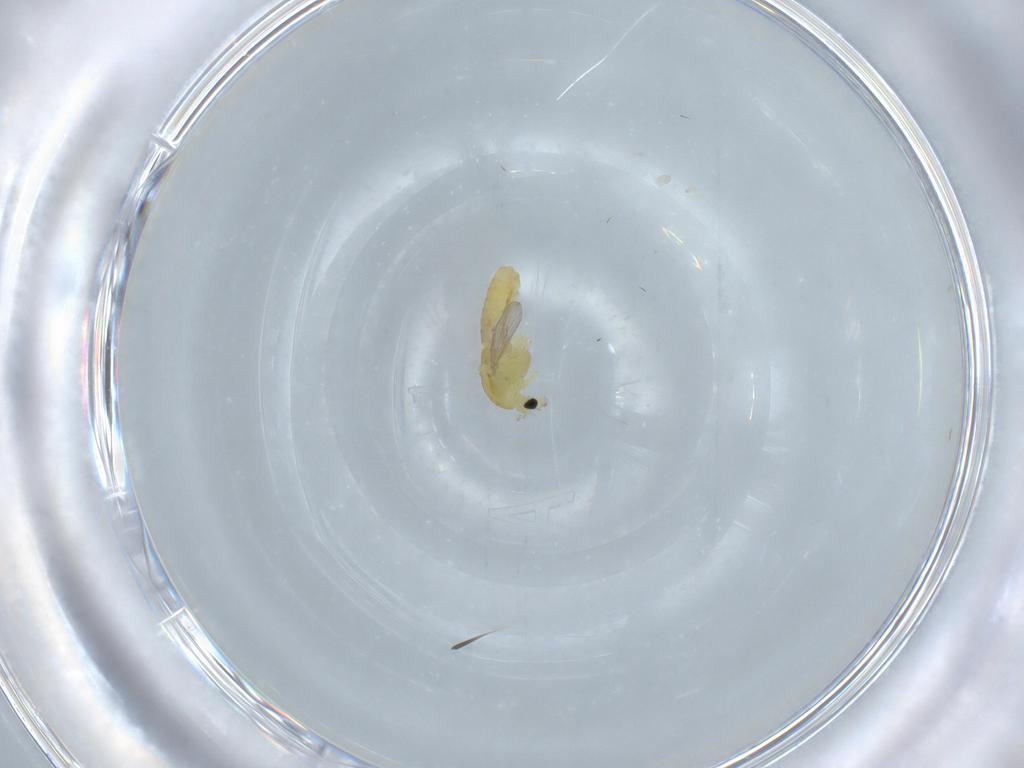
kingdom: Animalia
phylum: Arthropoda
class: Insecta
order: Diptera
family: Chironomidae
